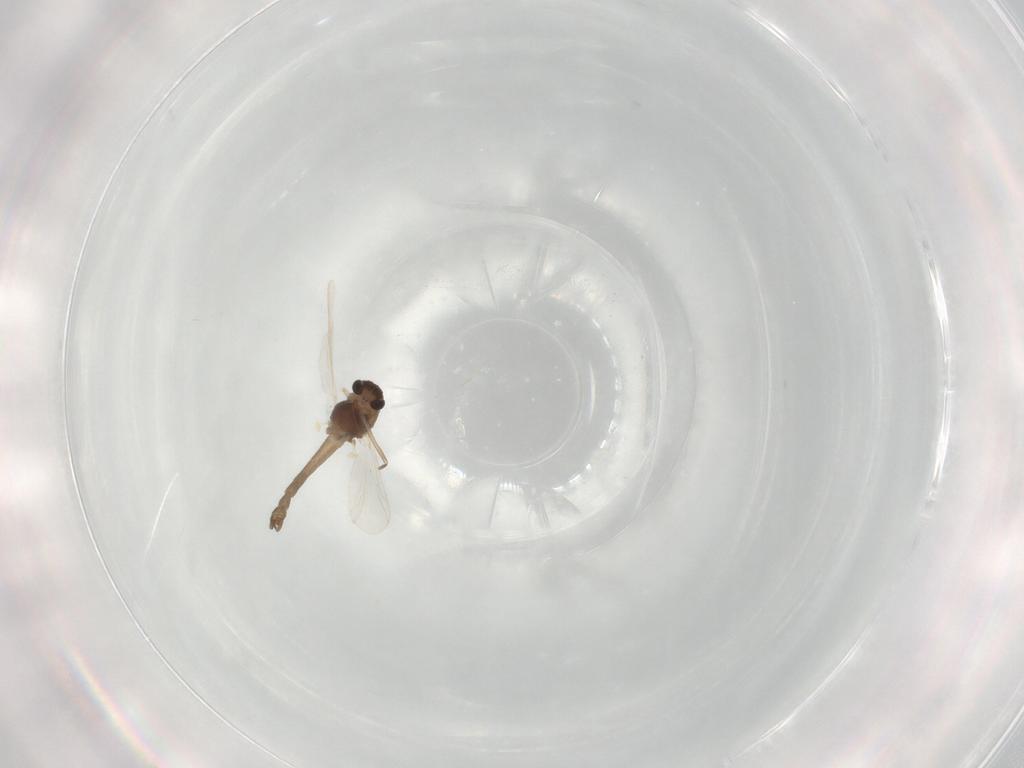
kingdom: Animalia
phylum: Arthropoda
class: Insecta
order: Diptera
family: Chironomidae
